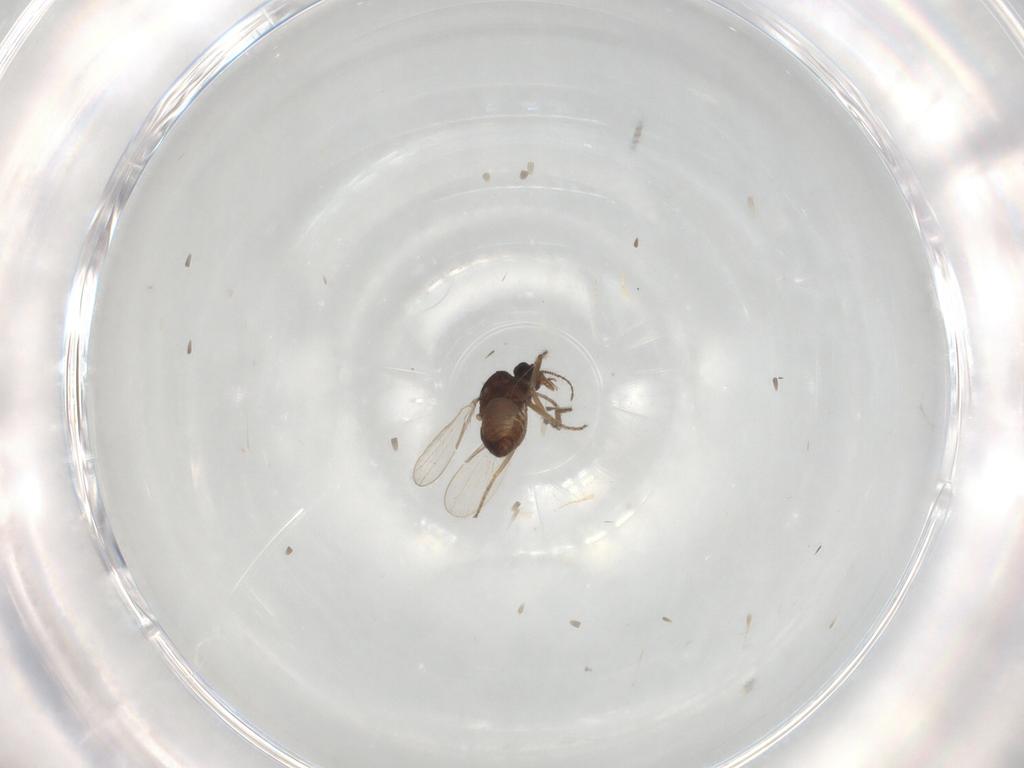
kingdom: Animalia
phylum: Arthropoda
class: Insecta
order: Diptera
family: Ceratopogonidae
